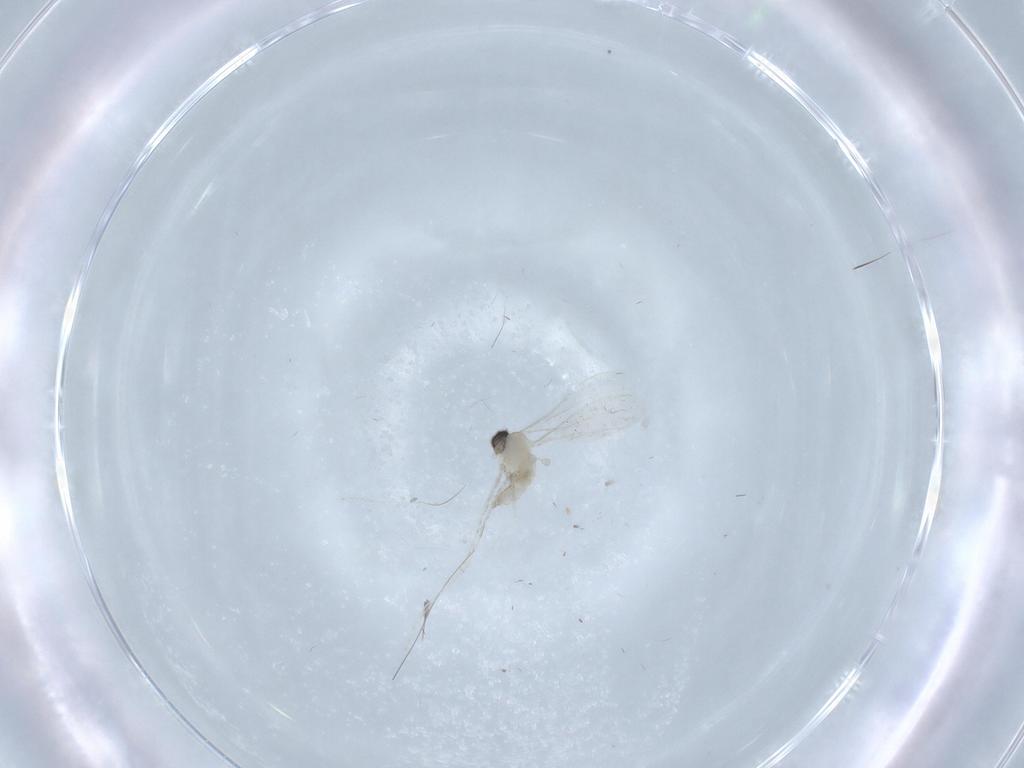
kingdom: Animalia
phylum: Arthropoda
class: Insecta
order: Diptera
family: Cecidomyiidae
